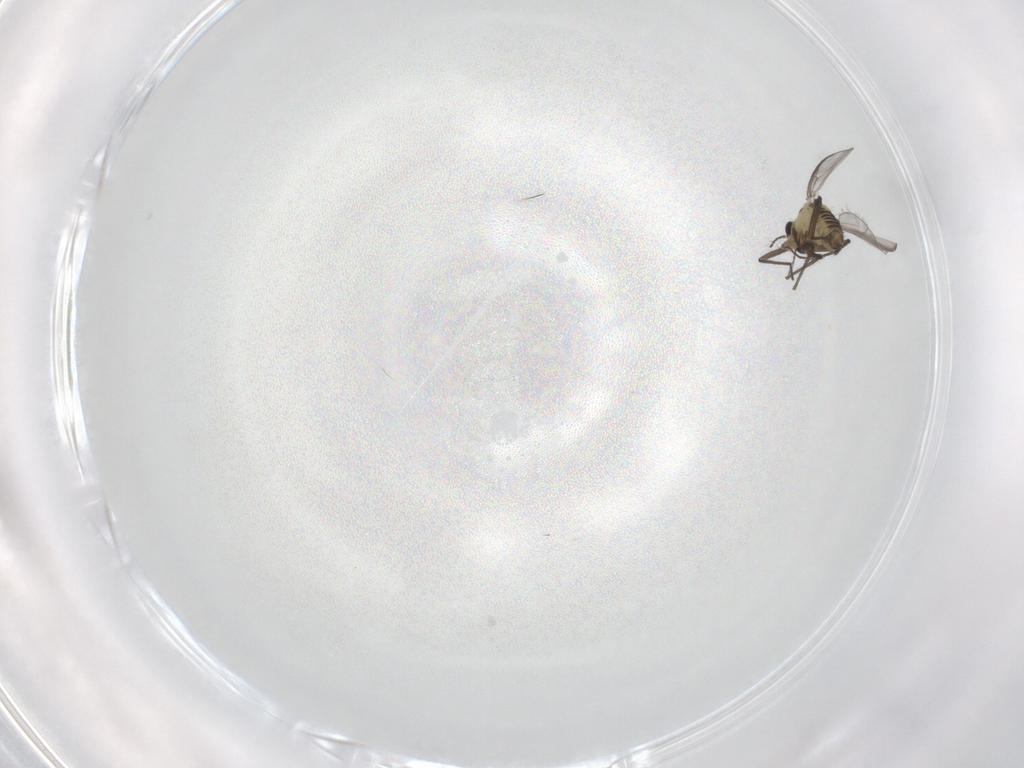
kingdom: Animalia
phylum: Arthropoda
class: Insecta
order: Diptera
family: Chironomidae
